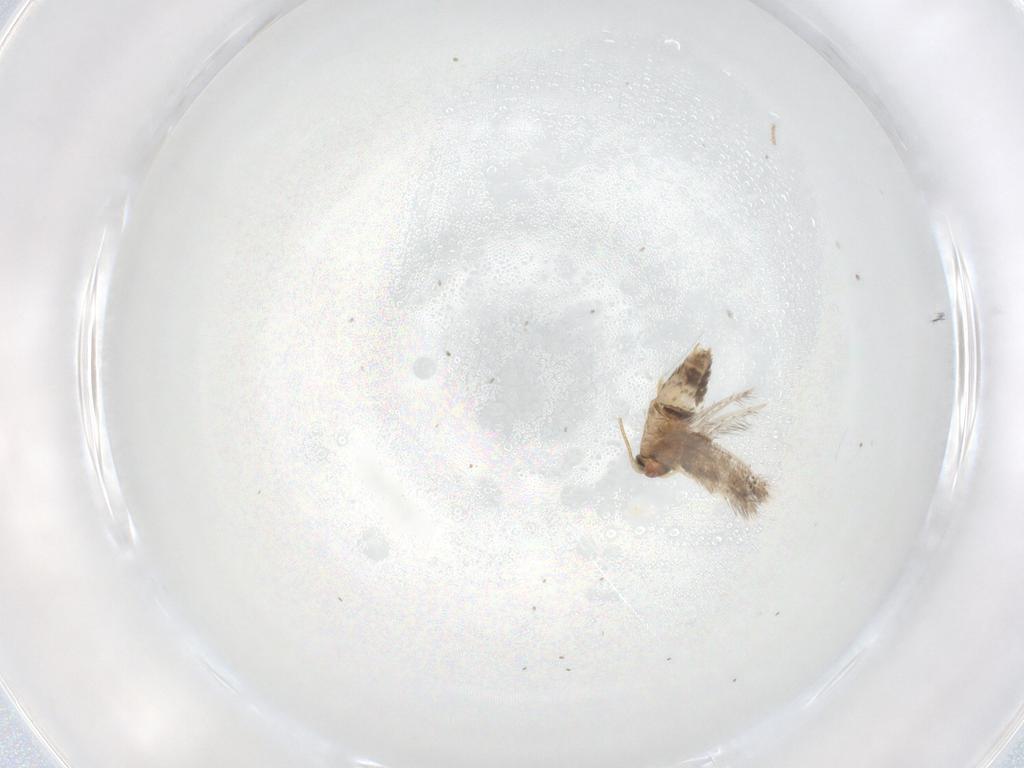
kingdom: Animalia
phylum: Arthropoda
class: Insecta
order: Lepidoptera
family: Nepticulidae
